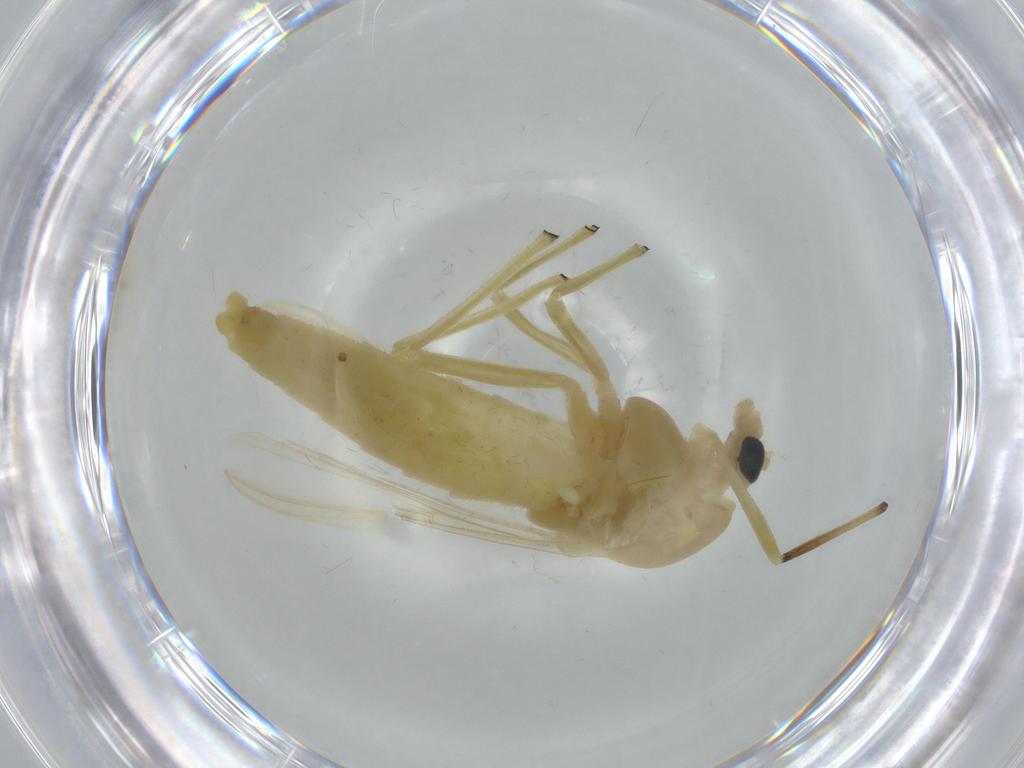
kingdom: Animalia
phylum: Arthropoda
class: Insecta
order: Diptera
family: Chironomidae
